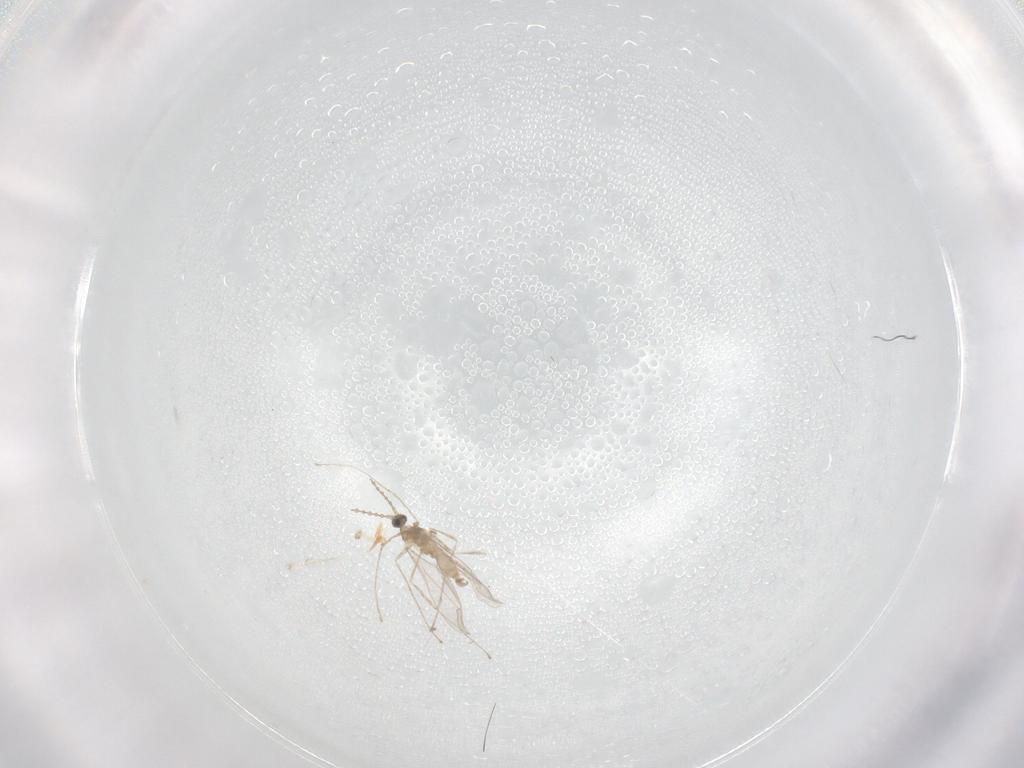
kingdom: Animalia
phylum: Arthropoda
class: Insecta
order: Diptera
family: Cecidomyiidae
